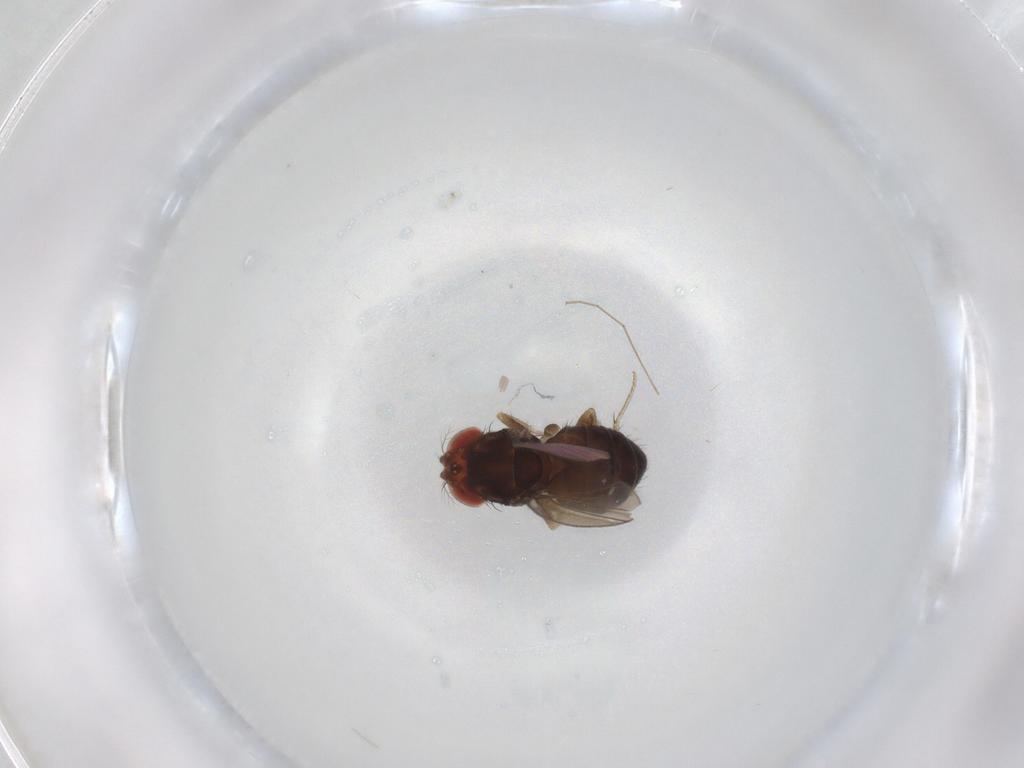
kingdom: Animalia
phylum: Arthropoda
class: Insecta
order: Diptera
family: Drosophilidae
